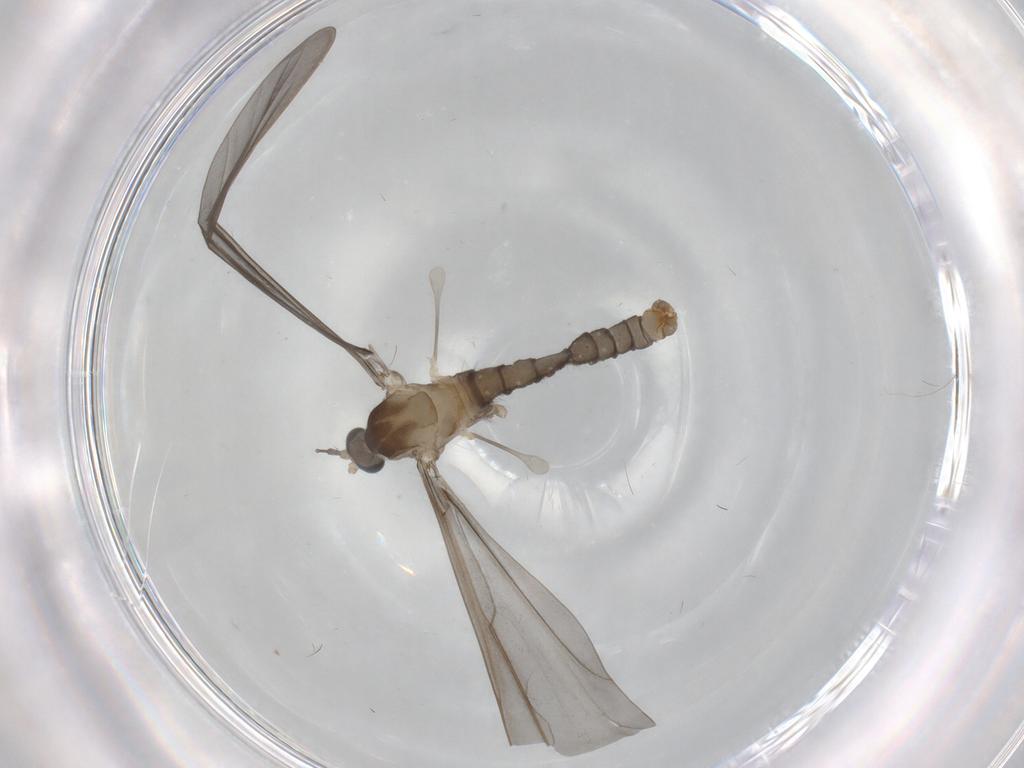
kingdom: Animalia
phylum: Arthropoda
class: Insecta
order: Diptera
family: Cecidomyiidae
